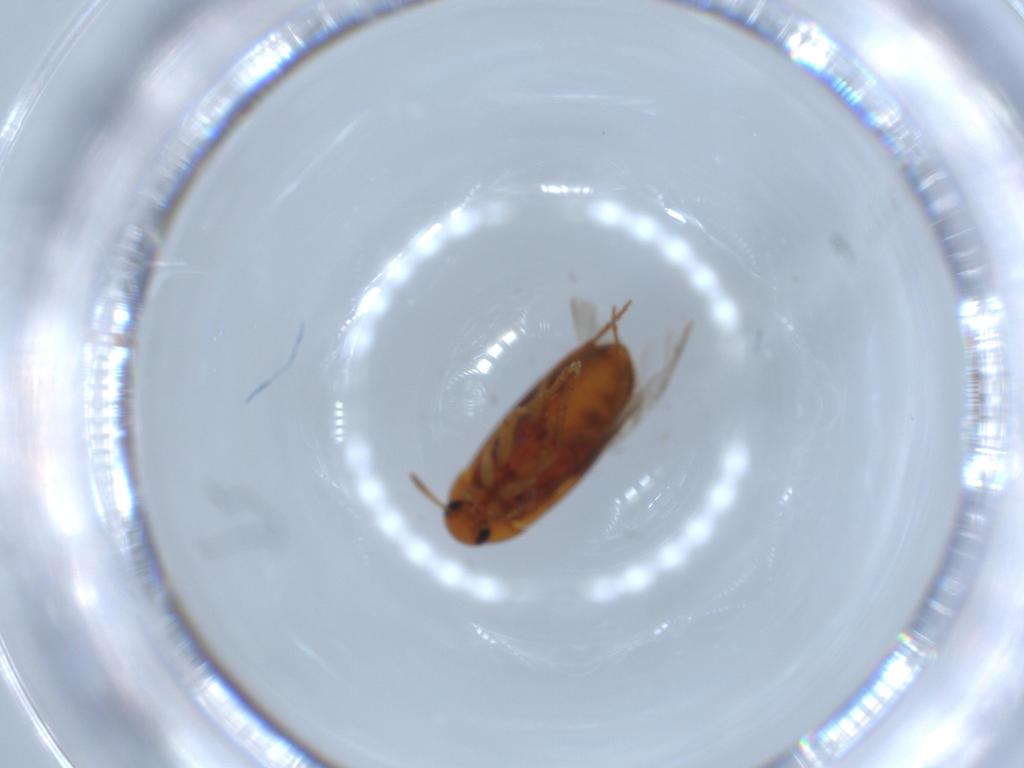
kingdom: Animalia
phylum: Arthropoda
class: Insecta
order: Coleoptera
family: Scraptiidae
